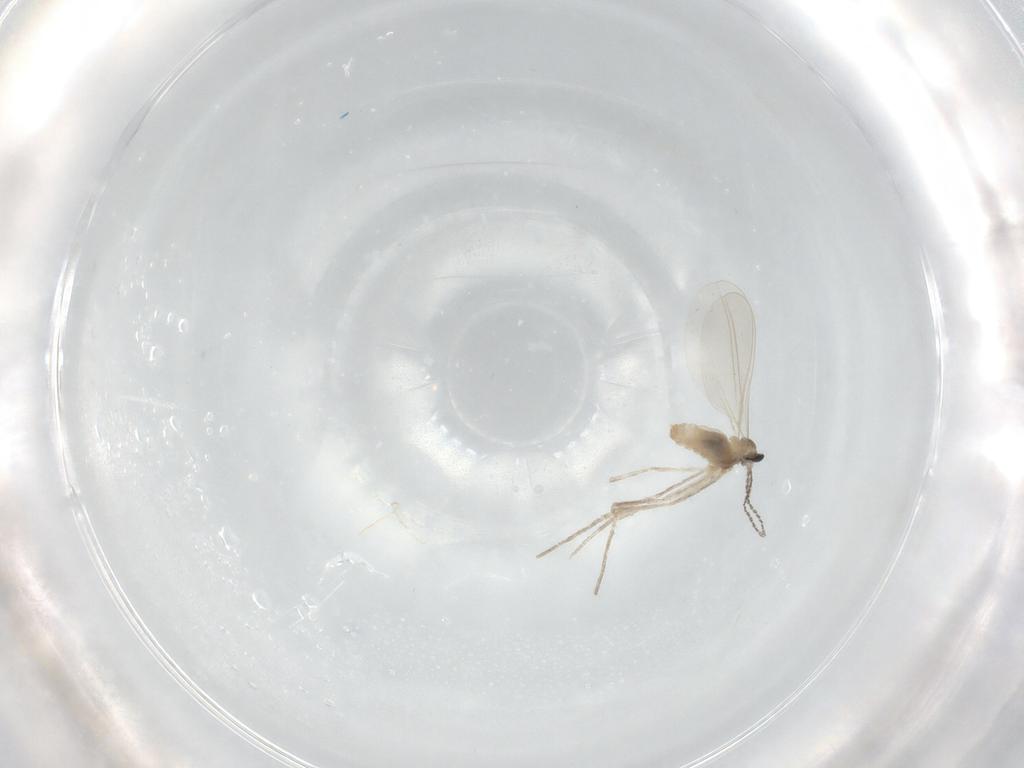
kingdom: Animalia
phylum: Arthropoda
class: Insecta
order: Diptera
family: Cecidomyiidae
